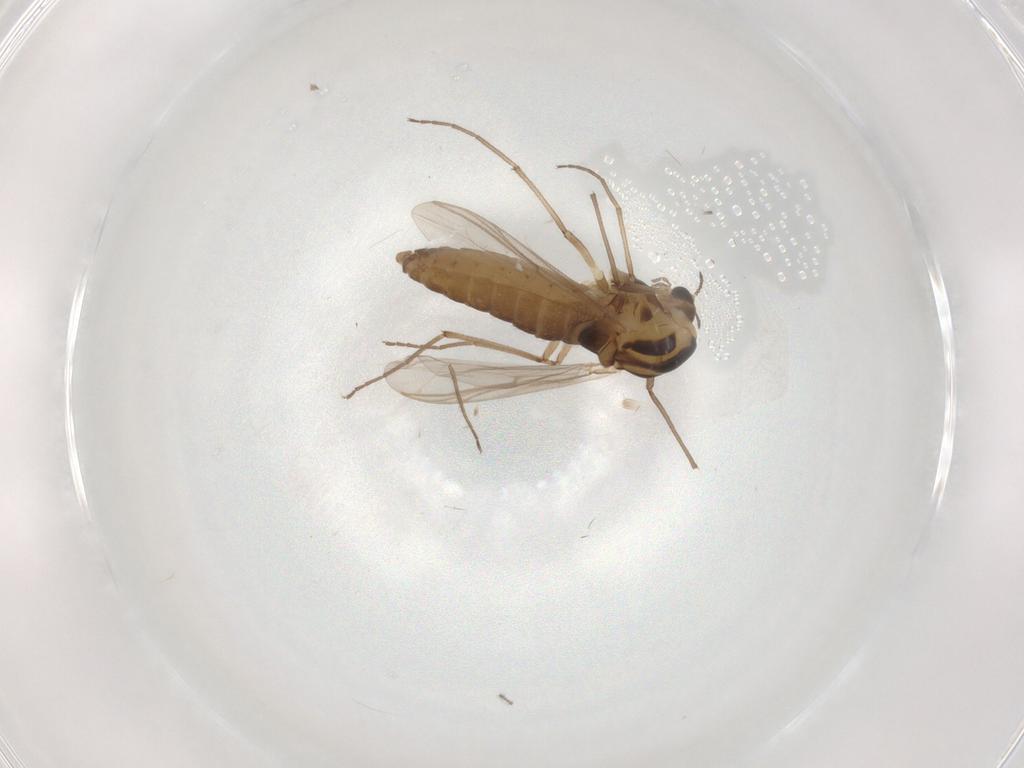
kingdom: Animalia
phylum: Arthropoda
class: Insecta
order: Diptera
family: Chironomidae
